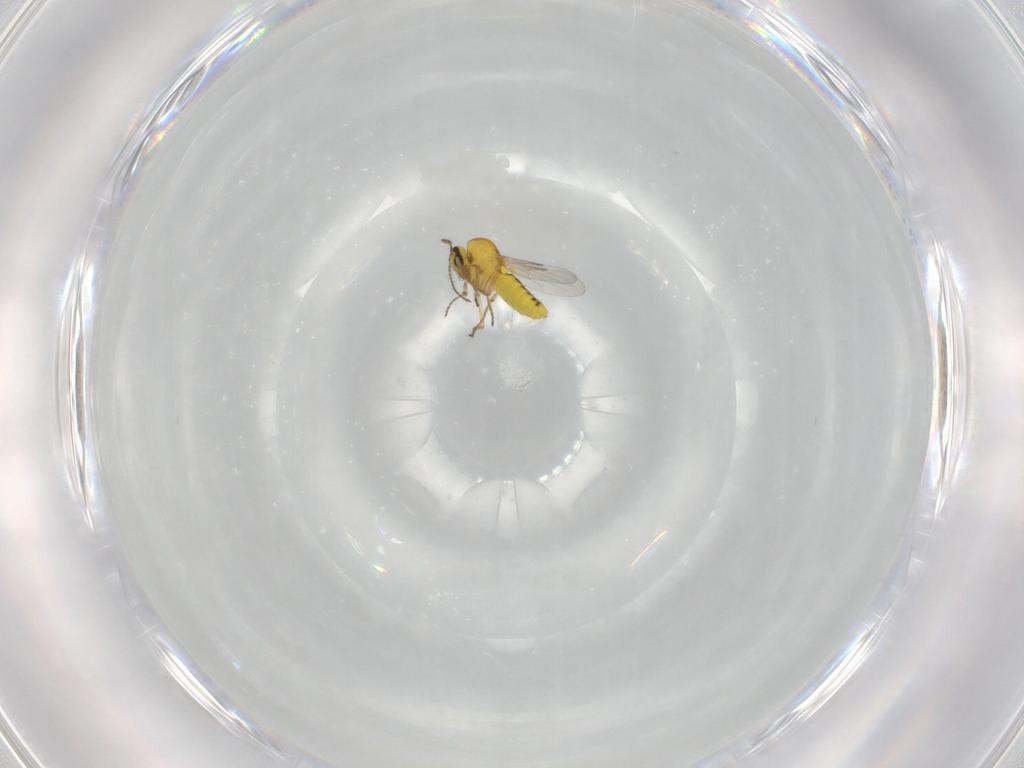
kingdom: Animalia
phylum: Arthropoda
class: Insecta
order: Diptera
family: Ceratopogonidae
